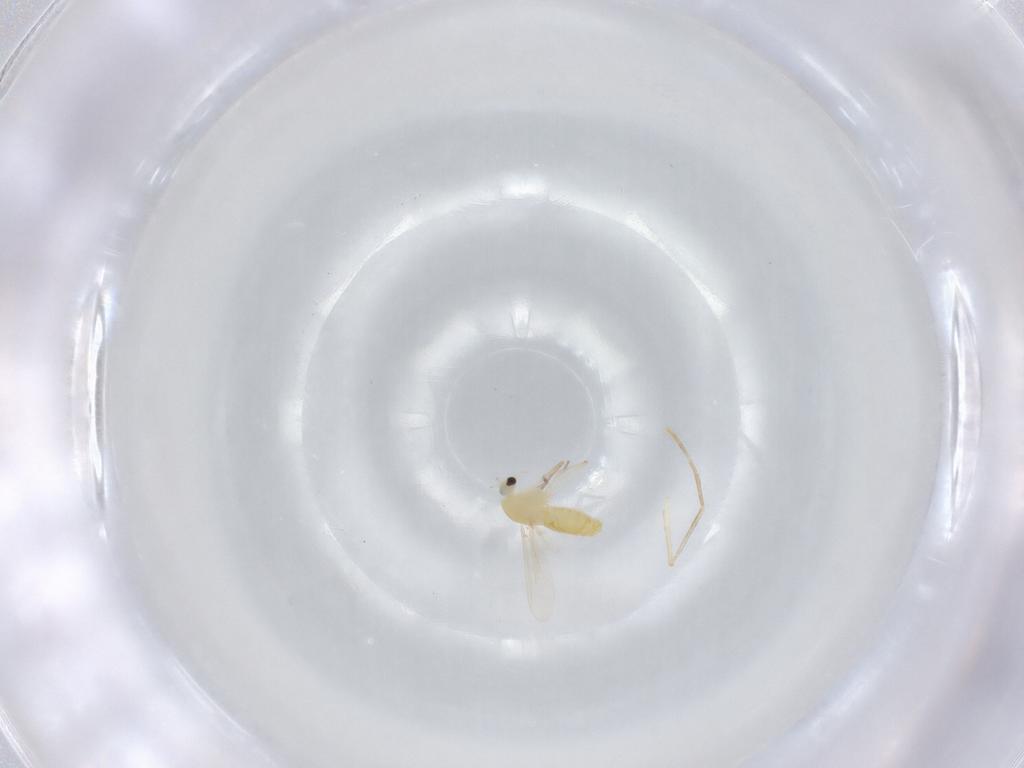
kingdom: Animalia
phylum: Arthropoda
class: Insecta
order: Diptera
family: Chironomidae
